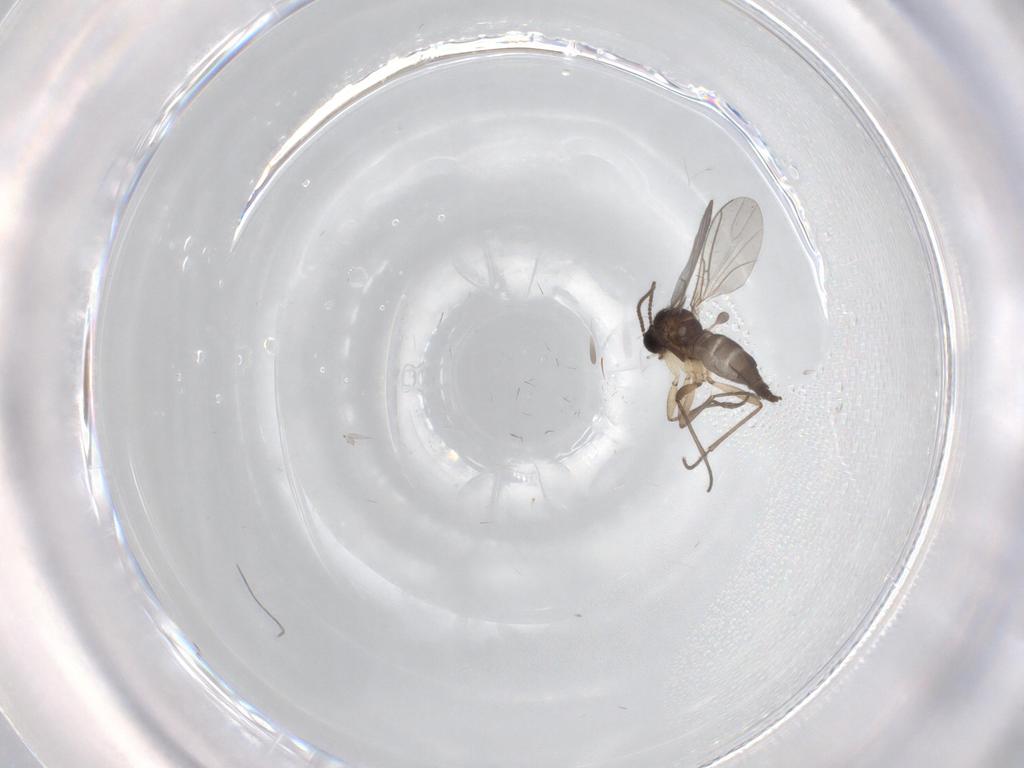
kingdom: Animalia
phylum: Arthropoda
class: Insecta
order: Diptera
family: Sciaridae
